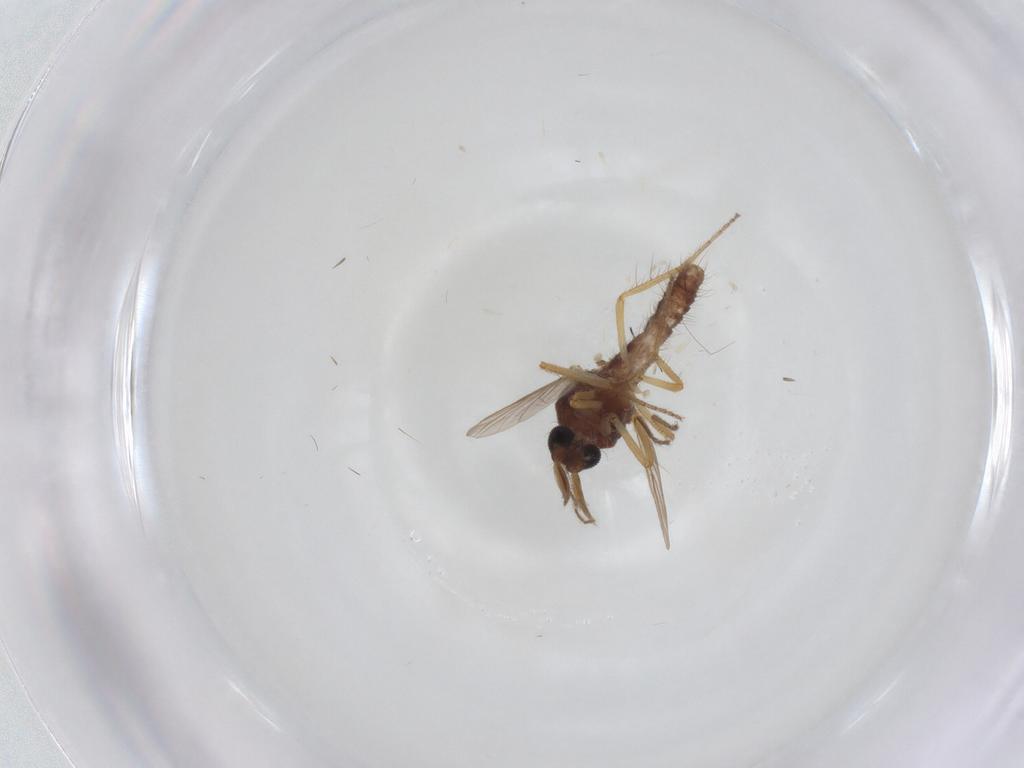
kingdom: Animalia
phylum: Arthropoda
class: Insecta
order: Diptera
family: Ceratopogonidae
